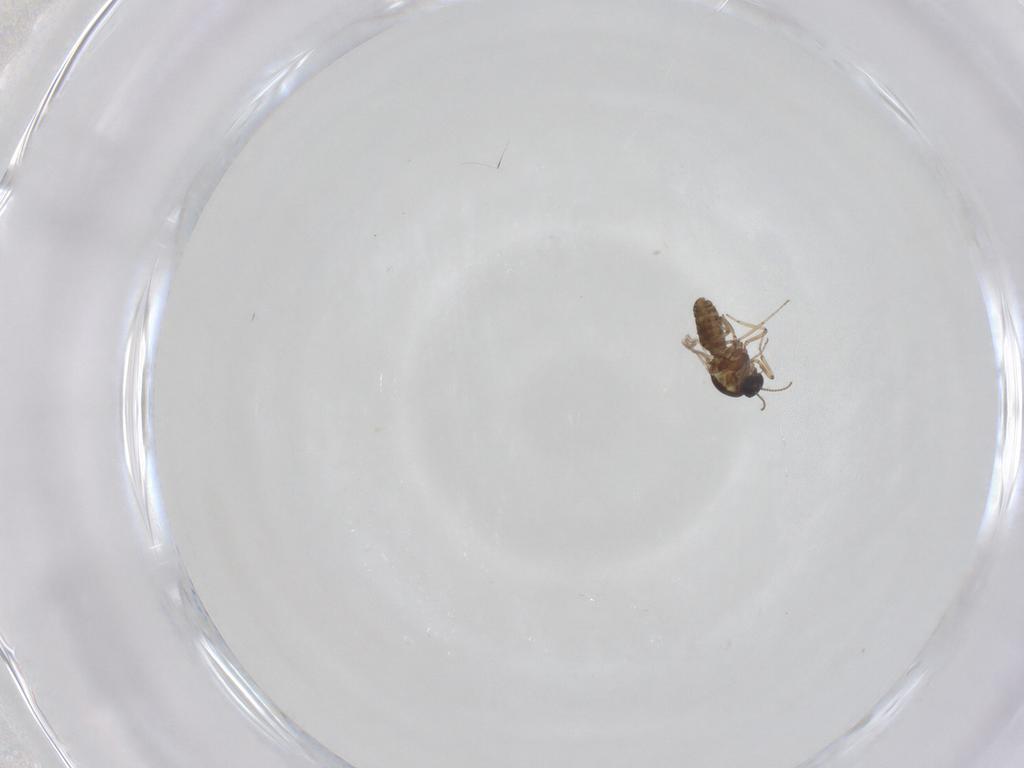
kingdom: Animalia
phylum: Arthropoda
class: Insecta
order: Diptera
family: Ceratopogonidae
